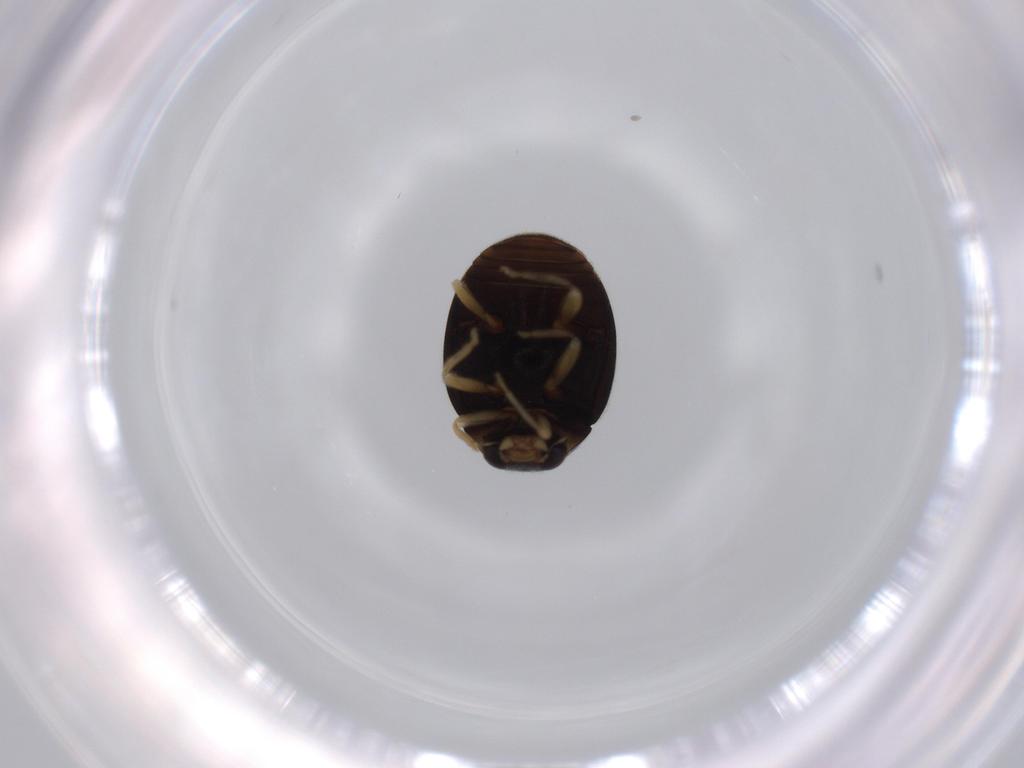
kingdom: Animalia
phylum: Arthropoda
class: Insecta
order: Coleoptera
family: Coccinellidae
